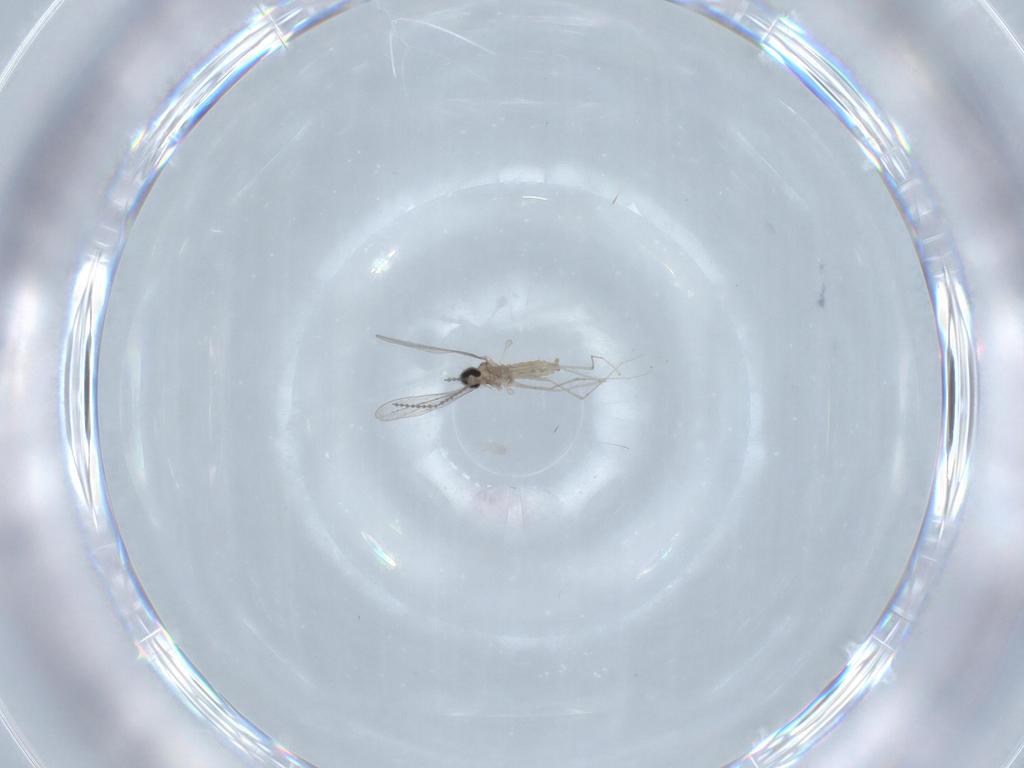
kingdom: Animalia
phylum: Arthropoda
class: Insecta
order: Diptera
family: Cecidomyiidae
